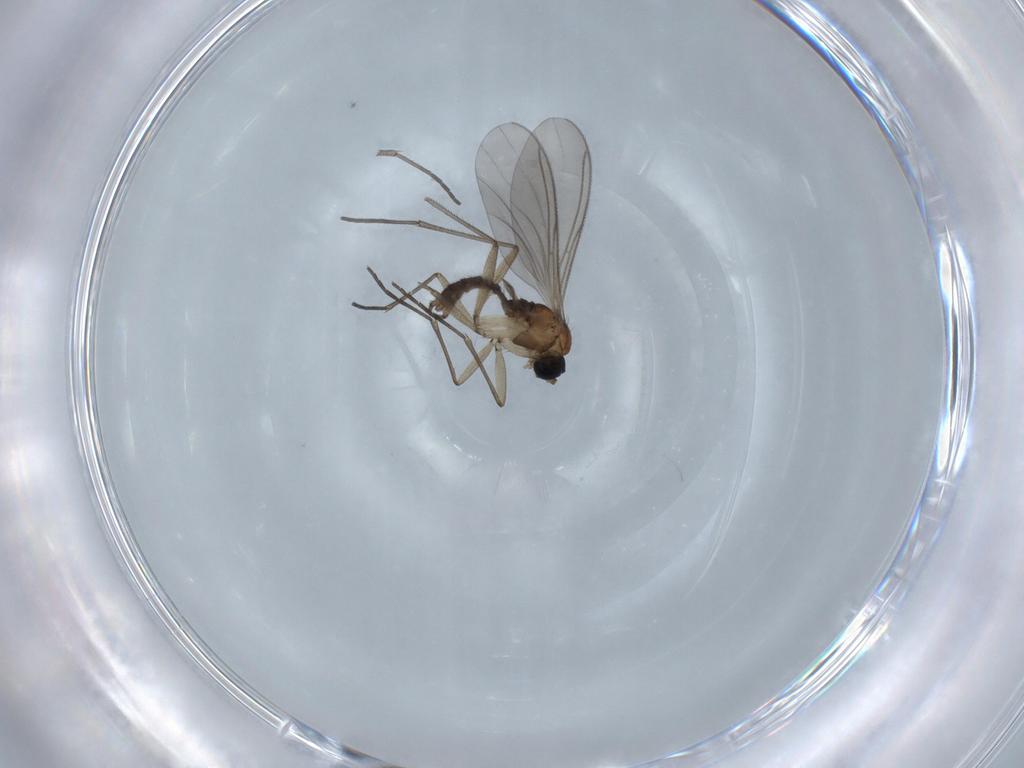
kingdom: Animalia
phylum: Arthropoda
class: Insecta
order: Diptera
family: Sciaridae
